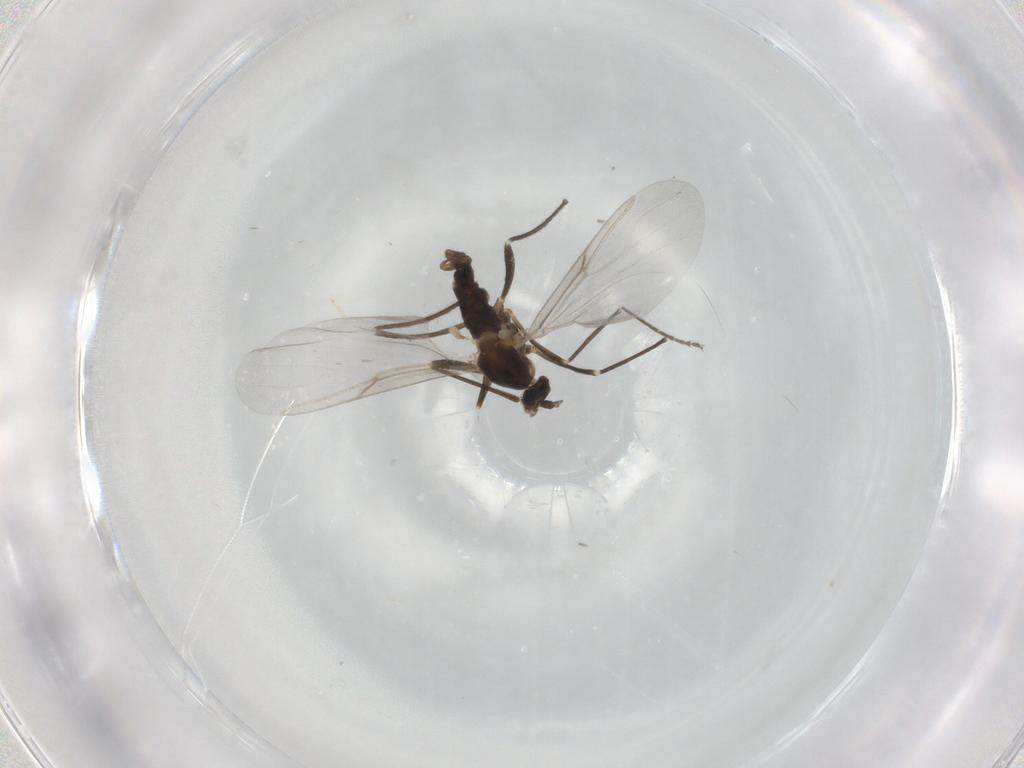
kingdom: Animalia
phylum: Arthropoda
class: Insecta
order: Diptera
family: Cecidomyiidae
